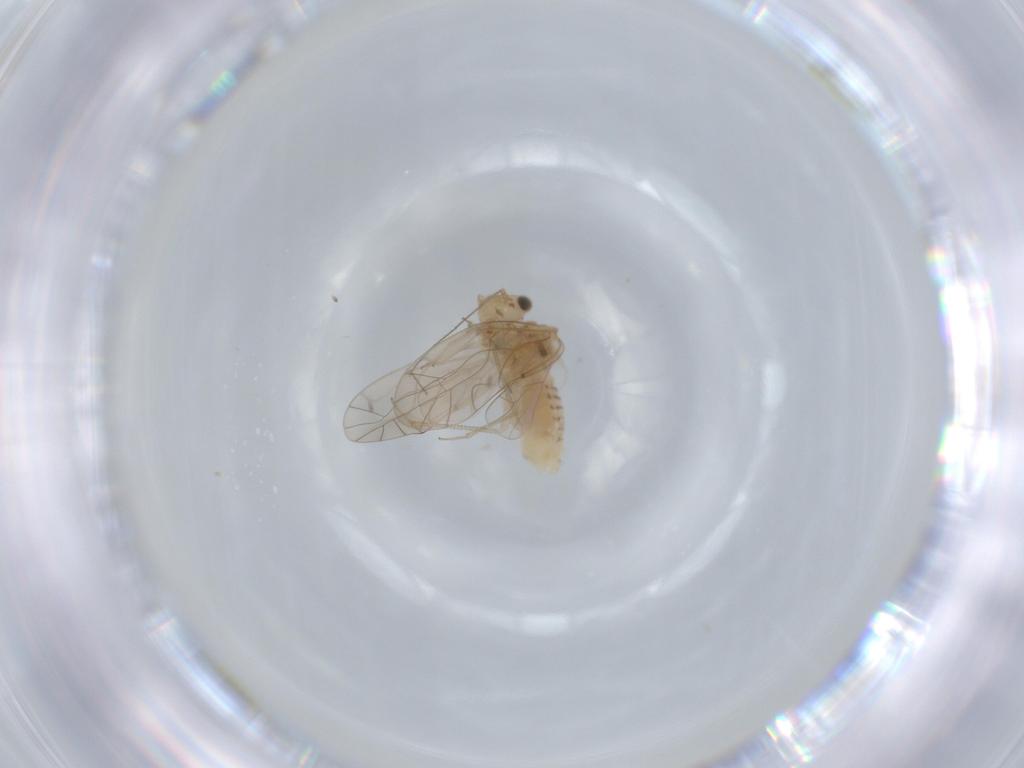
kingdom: Animalia
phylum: Arthropoda
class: Insecta
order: Psocodea
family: Lachesillidae
